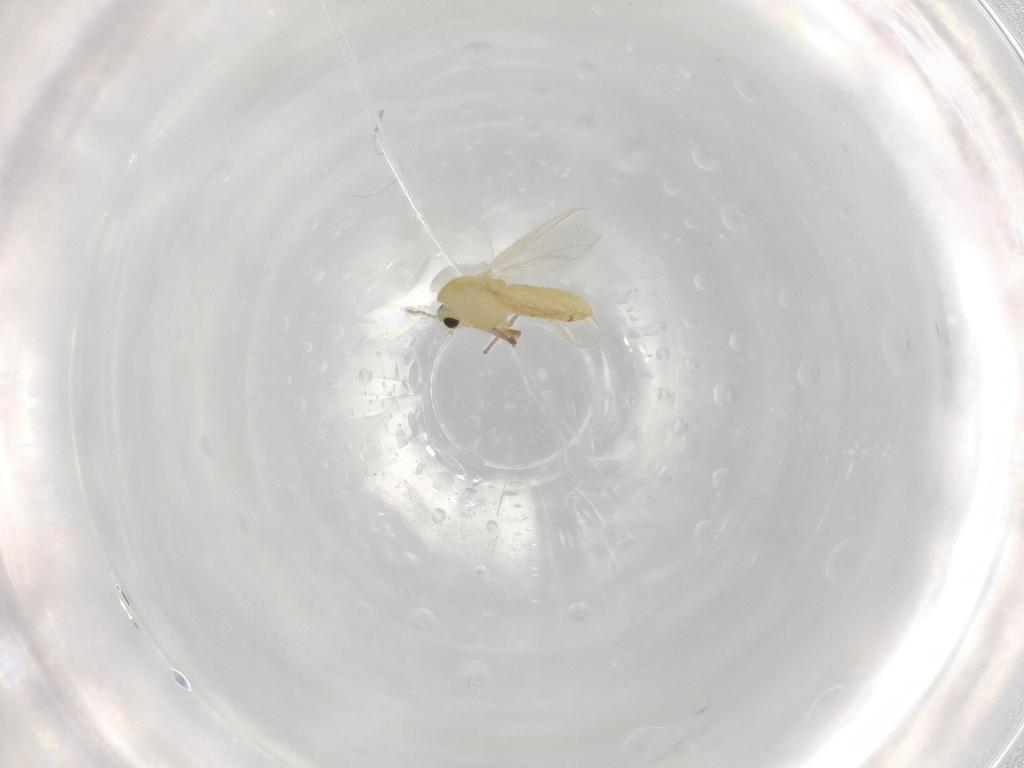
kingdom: Animalia
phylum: Arthropoda
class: Insecta
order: Diptera
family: Chironomidae
